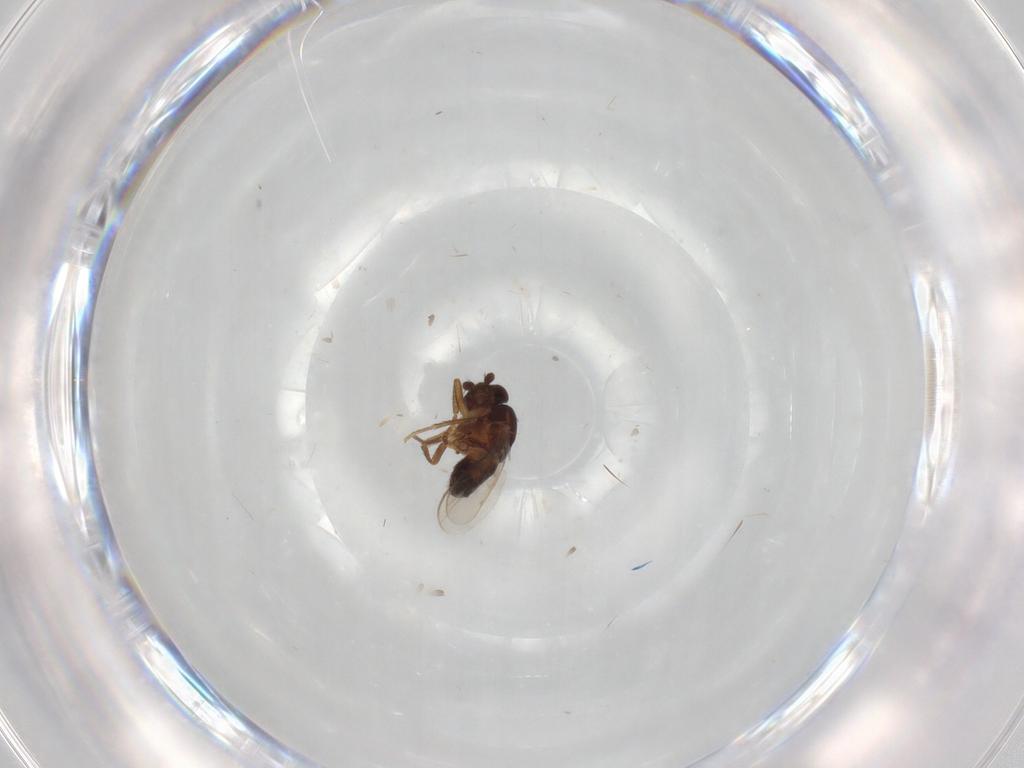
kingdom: Animalia
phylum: Arthropoda
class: Insecta
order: Diptera
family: Sphaeroceridae
